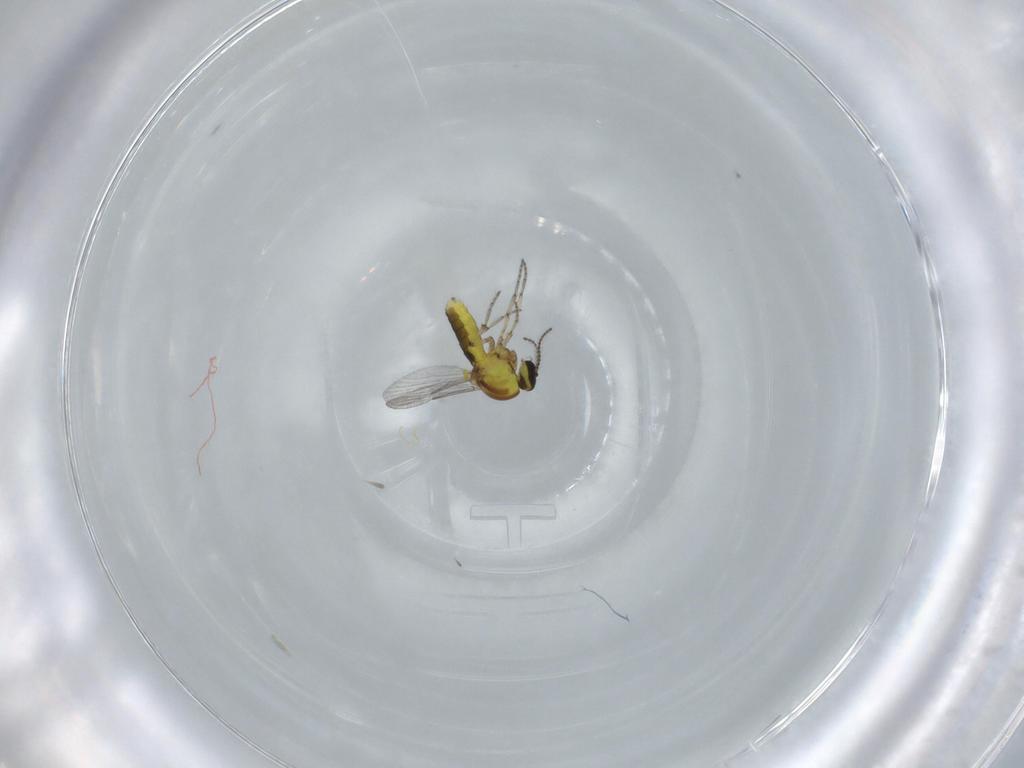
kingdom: Animalia
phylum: Arthropoda
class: Insecta
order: Diptera
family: Ceratopogonidae
